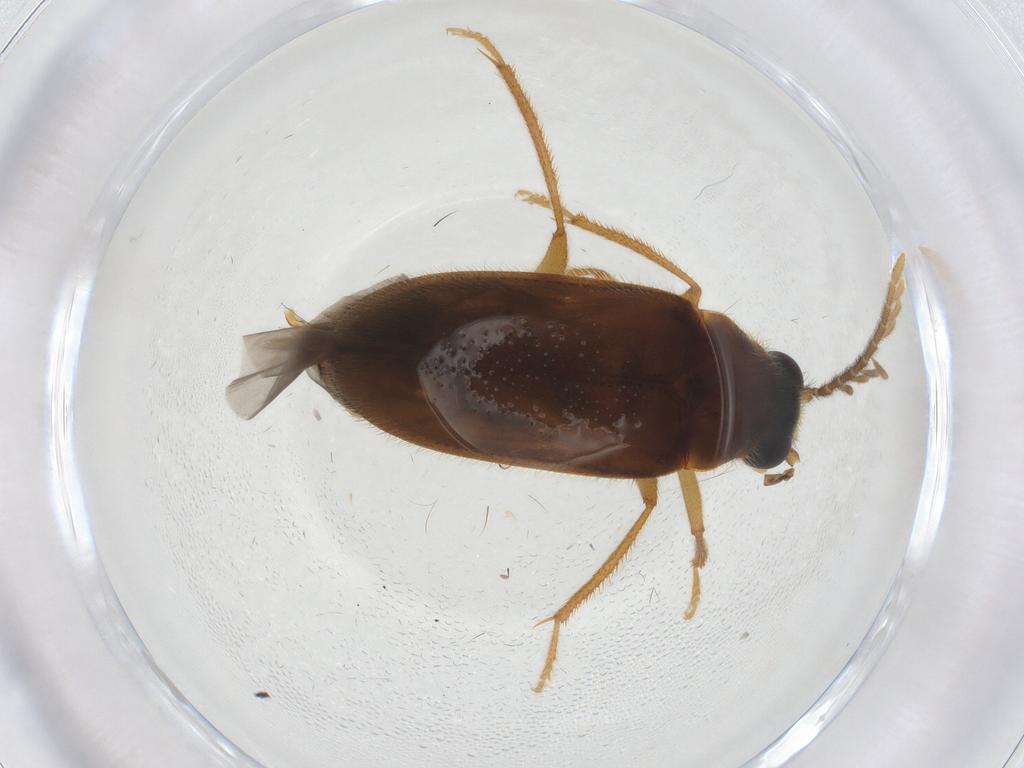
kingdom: Animalia
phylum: Arthropoda
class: Insecta
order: Coleoptera
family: Ptilodactylidae
